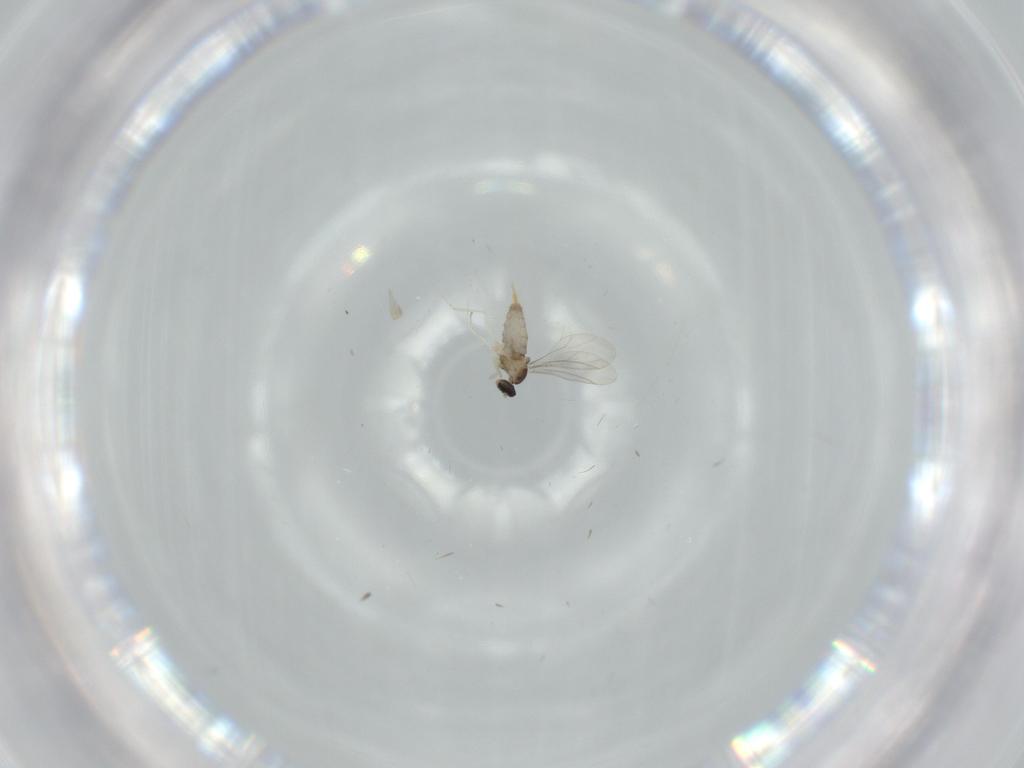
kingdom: Animalia
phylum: Arthropoda
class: Insecta
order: Diptera
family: Cecidomyiidae
